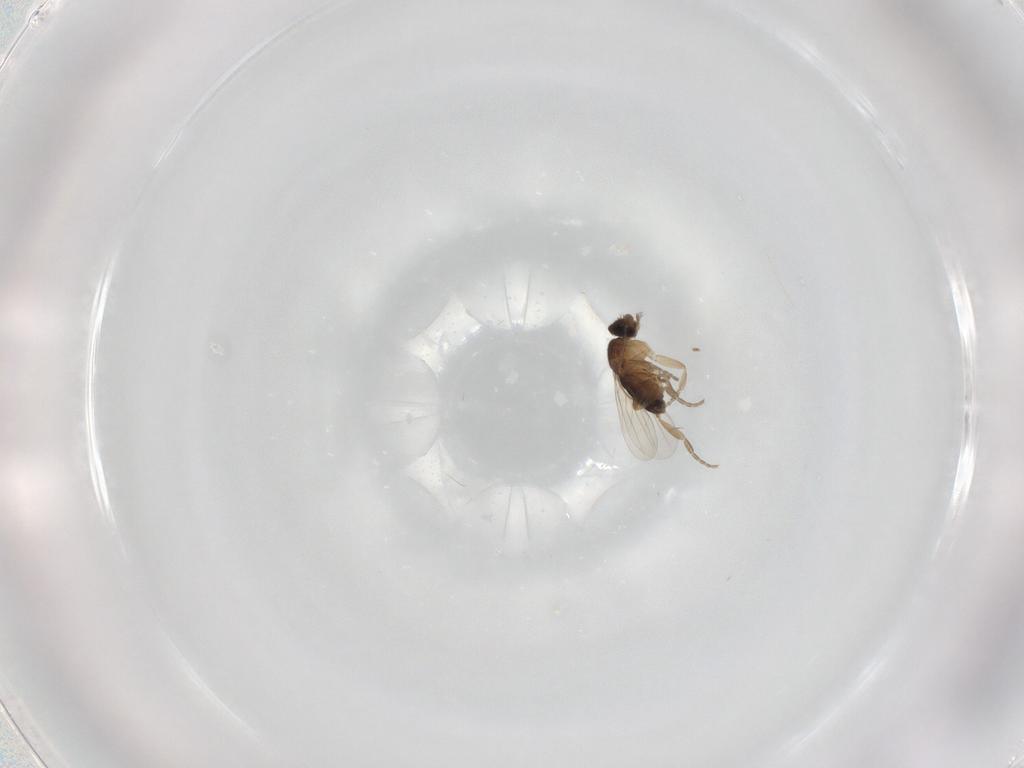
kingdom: Animalia
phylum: Arthropoda
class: Insecta
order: Diptera
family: Phoridae
